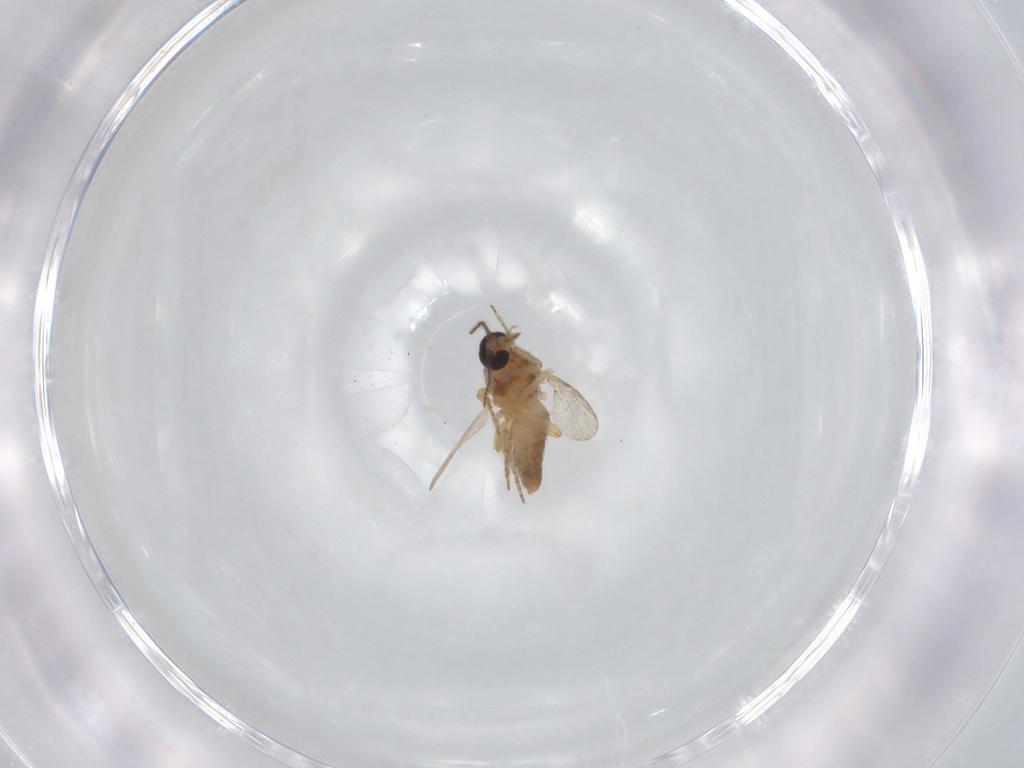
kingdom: Animalia
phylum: Arthropoda
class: Insecta
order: Diptera
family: Ceratopogonidae
